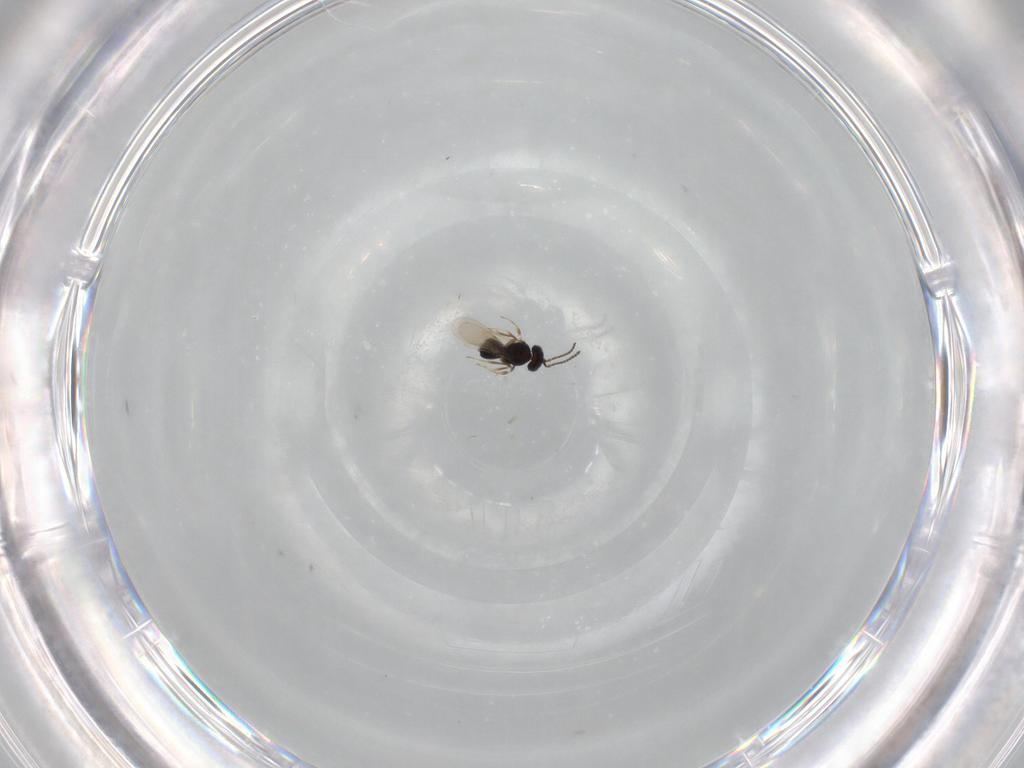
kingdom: Animalia
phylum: Arthropoda
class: Insecta
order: Hymenoptera
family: Scelionidae
